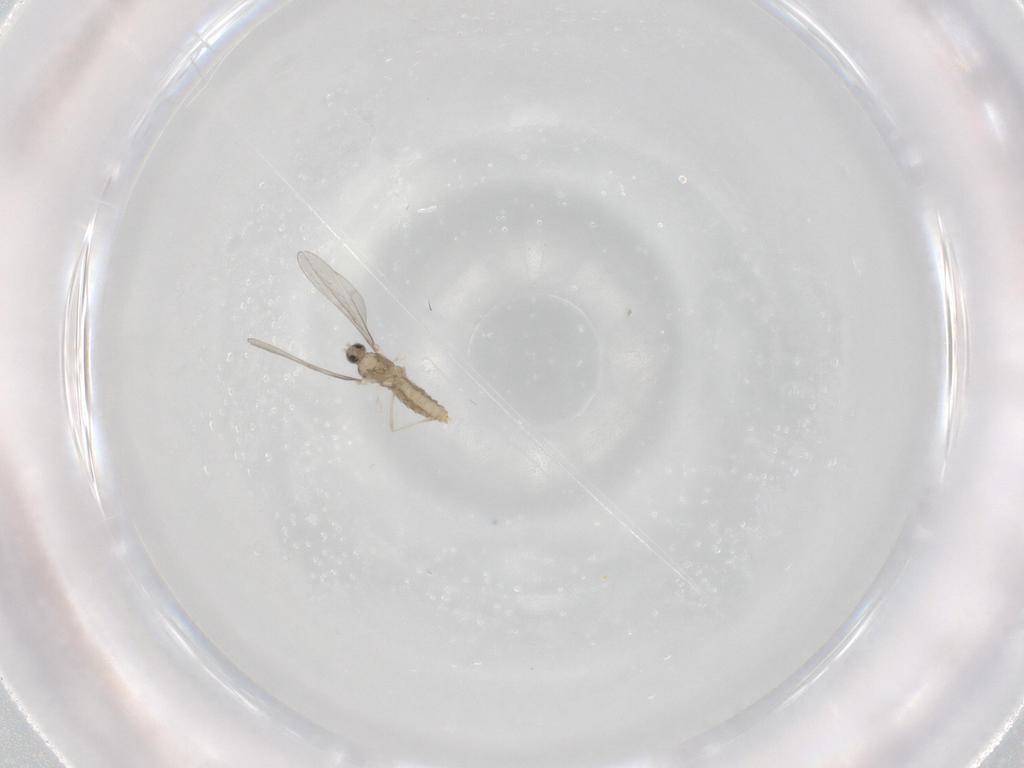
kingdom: Animalia
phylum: Arthropoda
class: Insecta
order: Diptera
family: Cecidomyiidae
